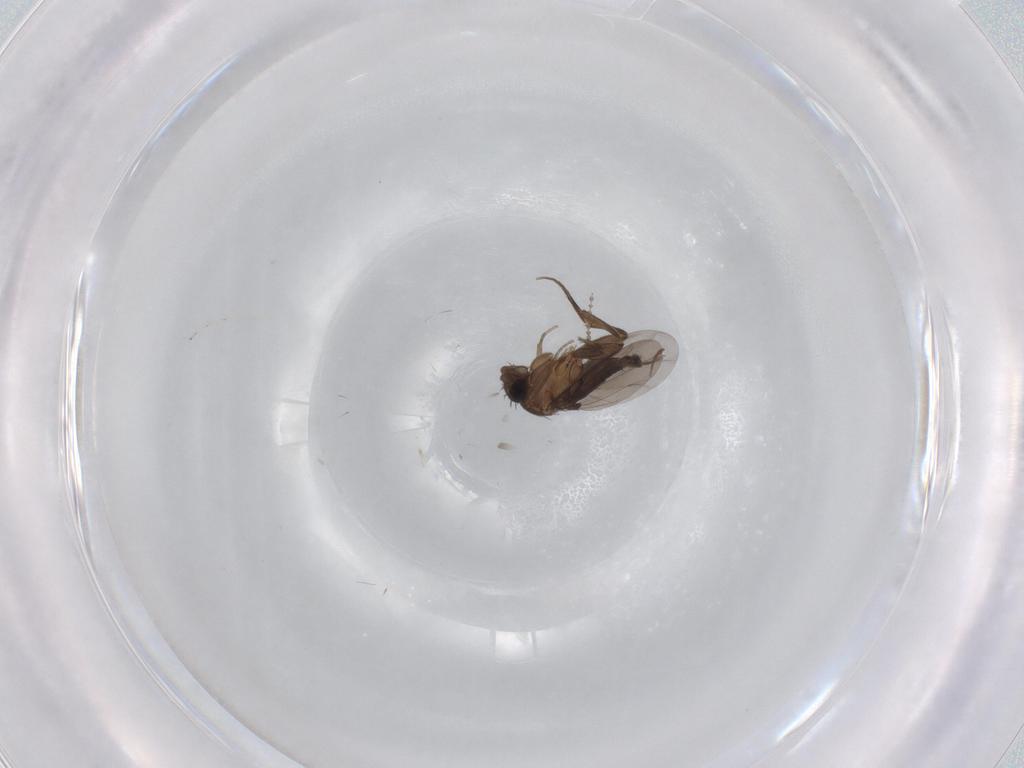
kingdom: Animalia
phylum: Arthropoda
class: Insecta
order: Diptera
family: Phoridae
